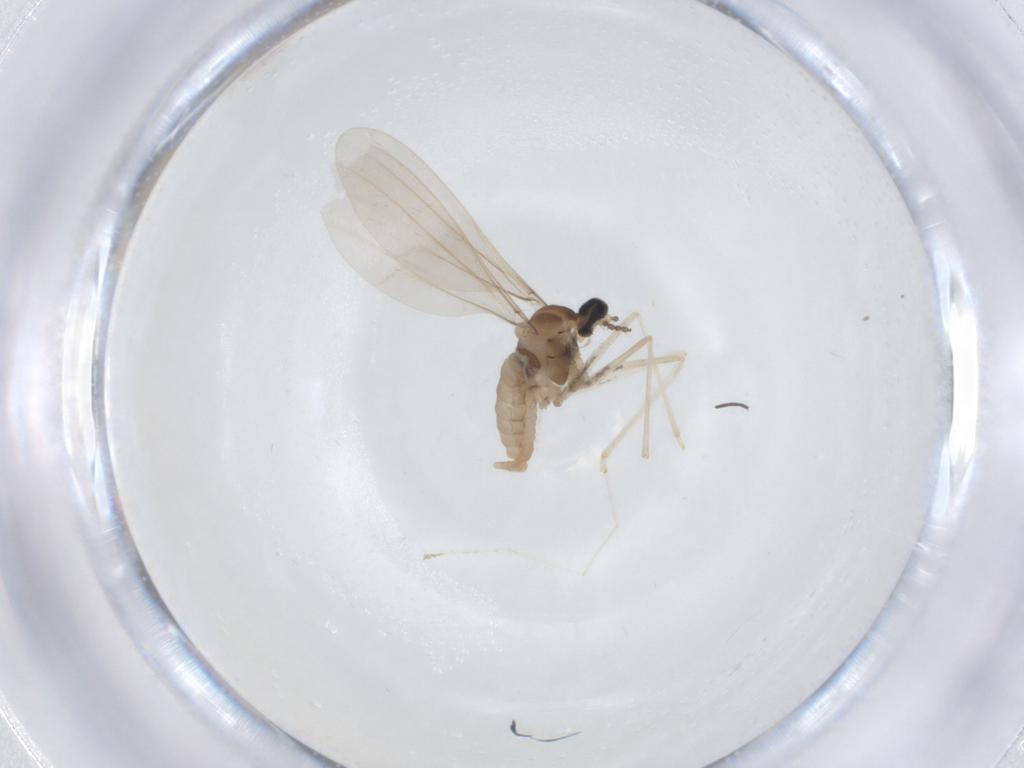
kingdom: Animalia
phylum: Arthropoda
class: Insecta
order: Diptera
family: Cecidomyiidae
